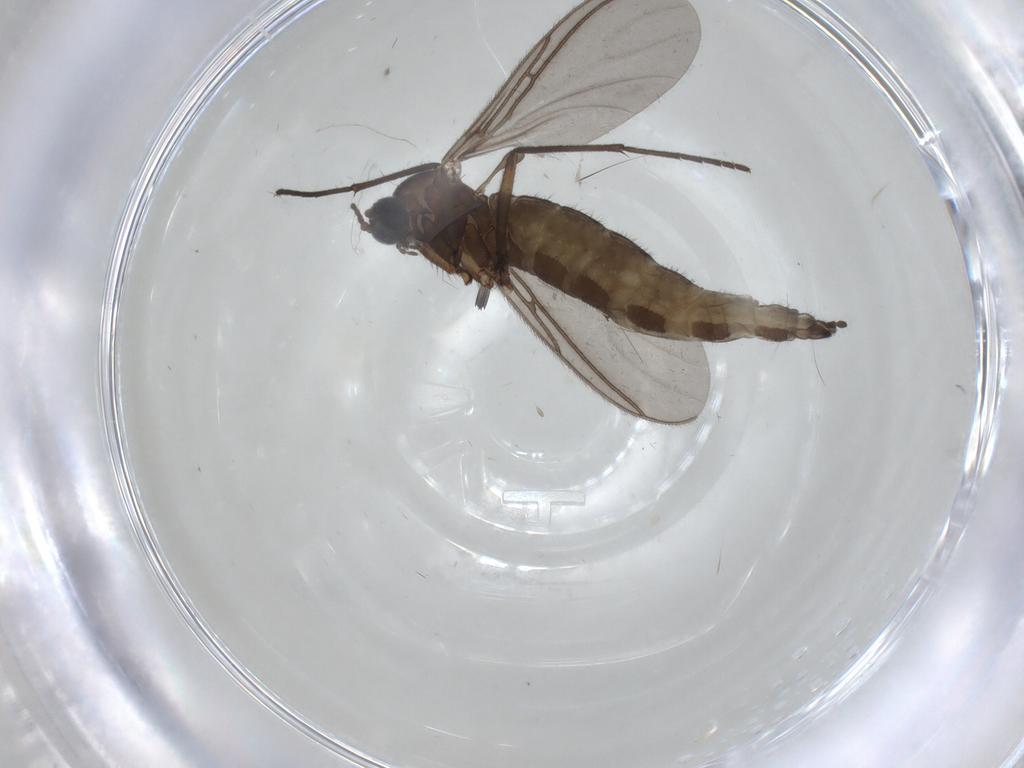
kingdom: Animalia
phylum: Arthropoda
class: Insecta
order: Diptera
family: Sciaridae
